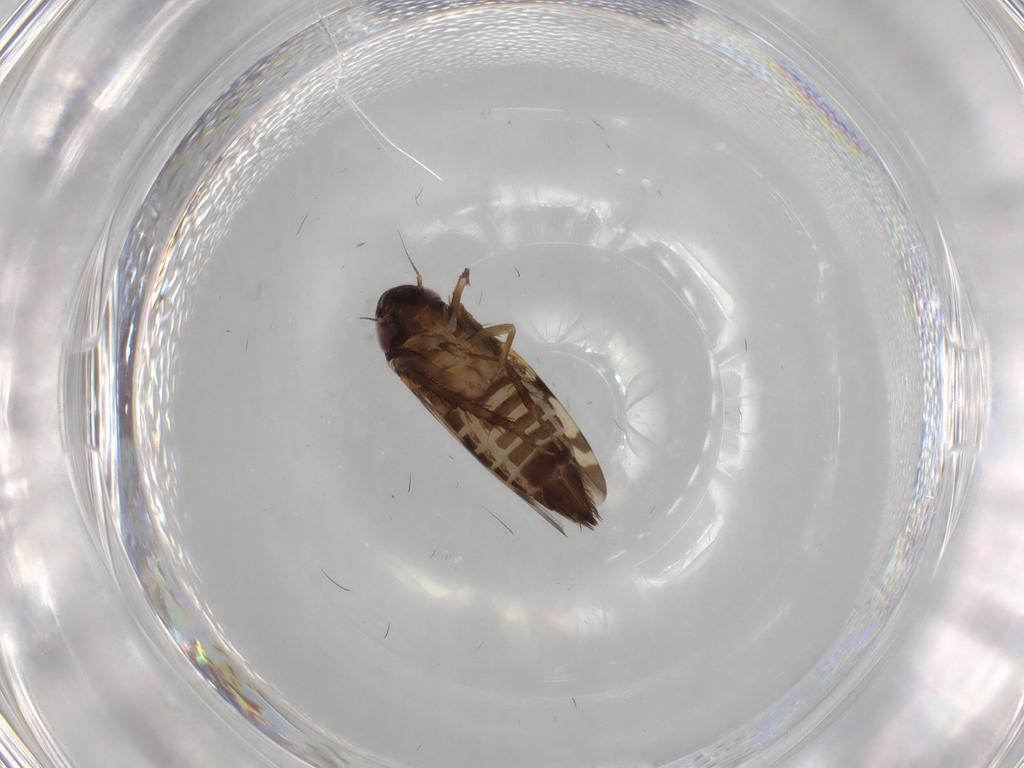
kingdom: Animalia
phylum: Arthropoda
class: Insecta
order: Hemiptera
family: Cicadellidae
